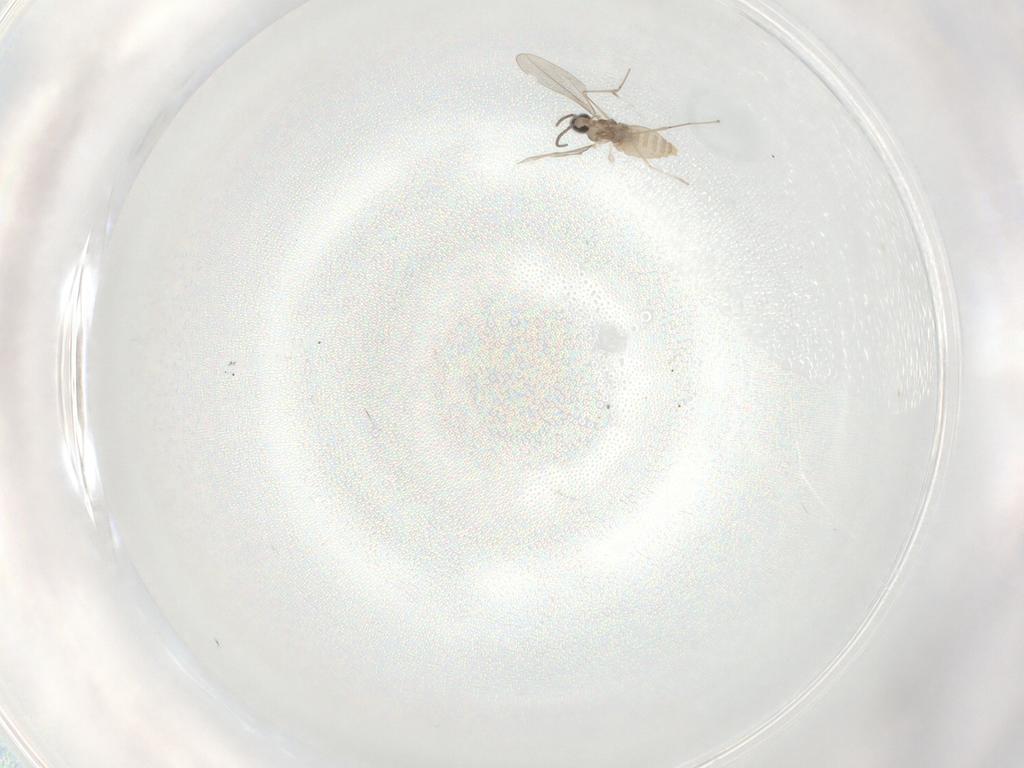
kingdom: Animalia
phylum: Arthropoda
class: Insecta
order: Diptera
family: Cecidomyiidae
